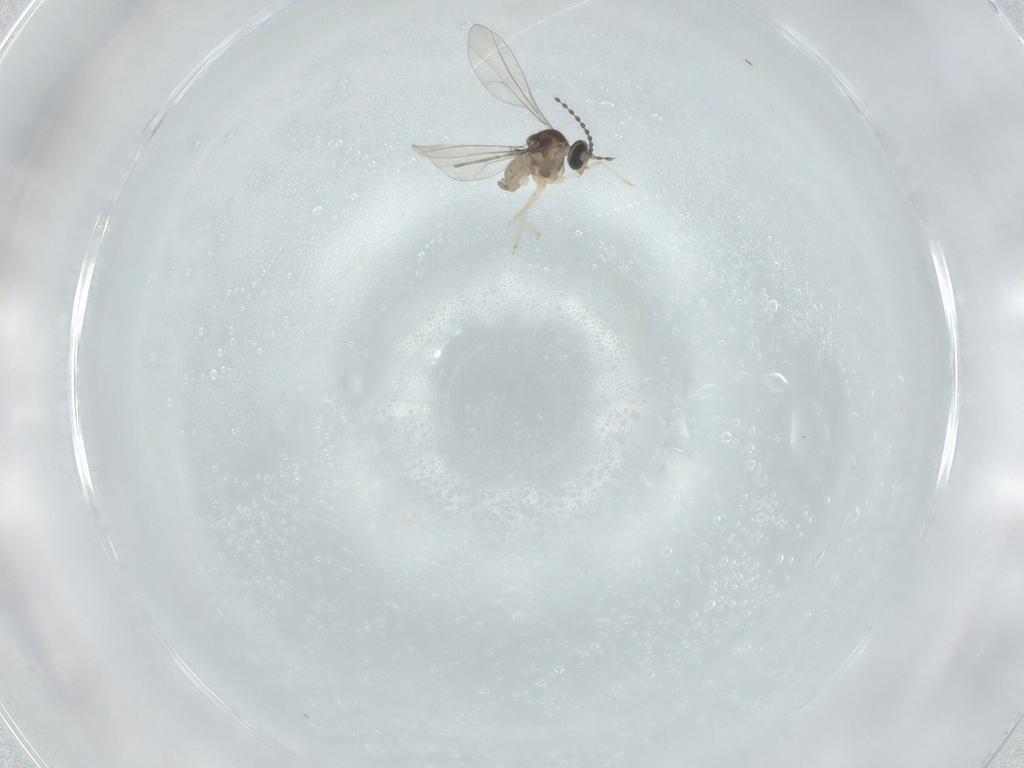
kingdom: Animalia
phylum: Arthropoda
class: Insecta
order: Diptera
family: Cecidomyiidae
